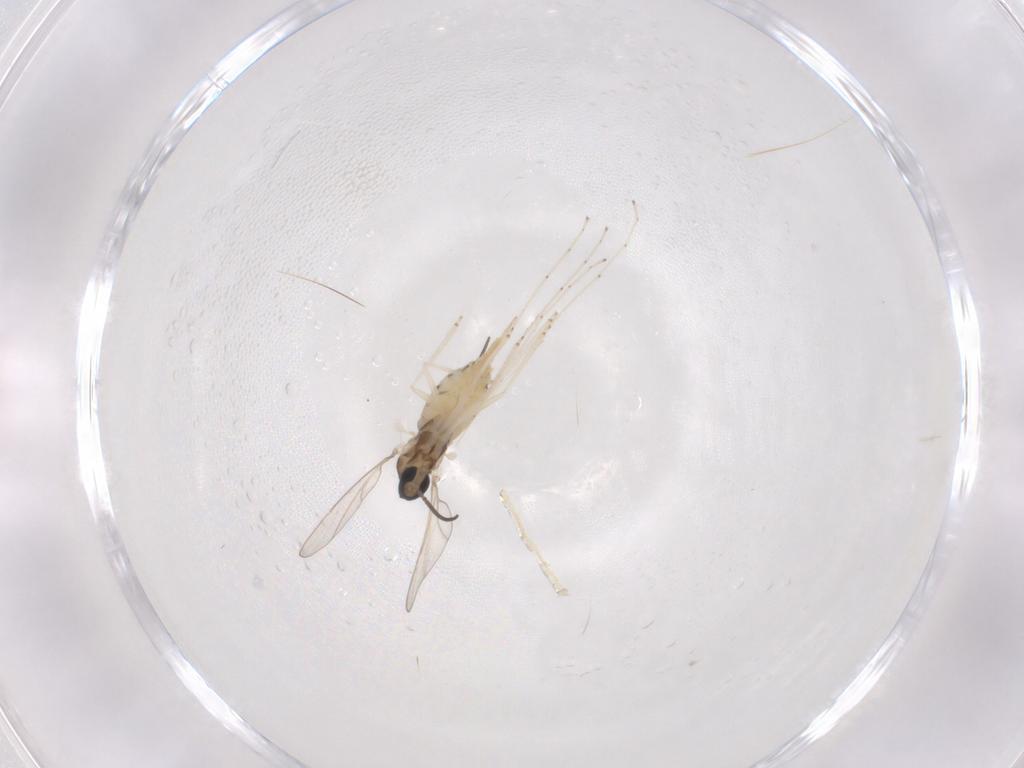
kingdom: Animalia
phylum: Arthropoda
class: Insecta
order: Diptera
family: Cecidomyiidae
